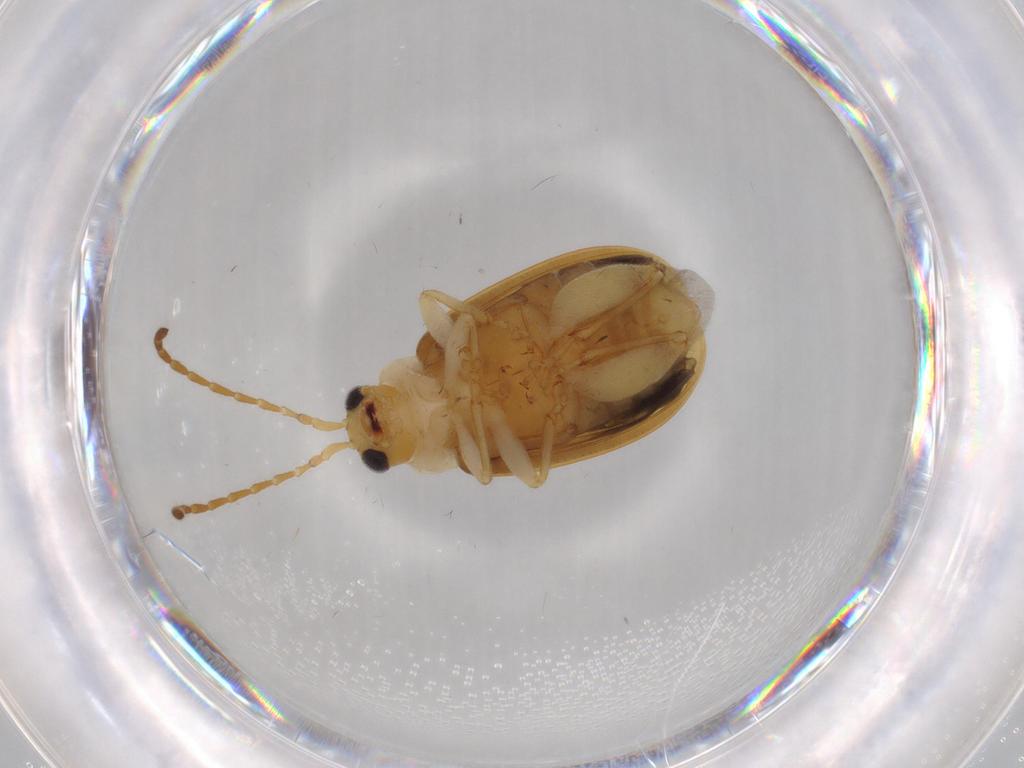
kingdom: Animalia
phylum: Arthropoda
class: Insecta
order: Coleoptera
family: Chrysomelidae
